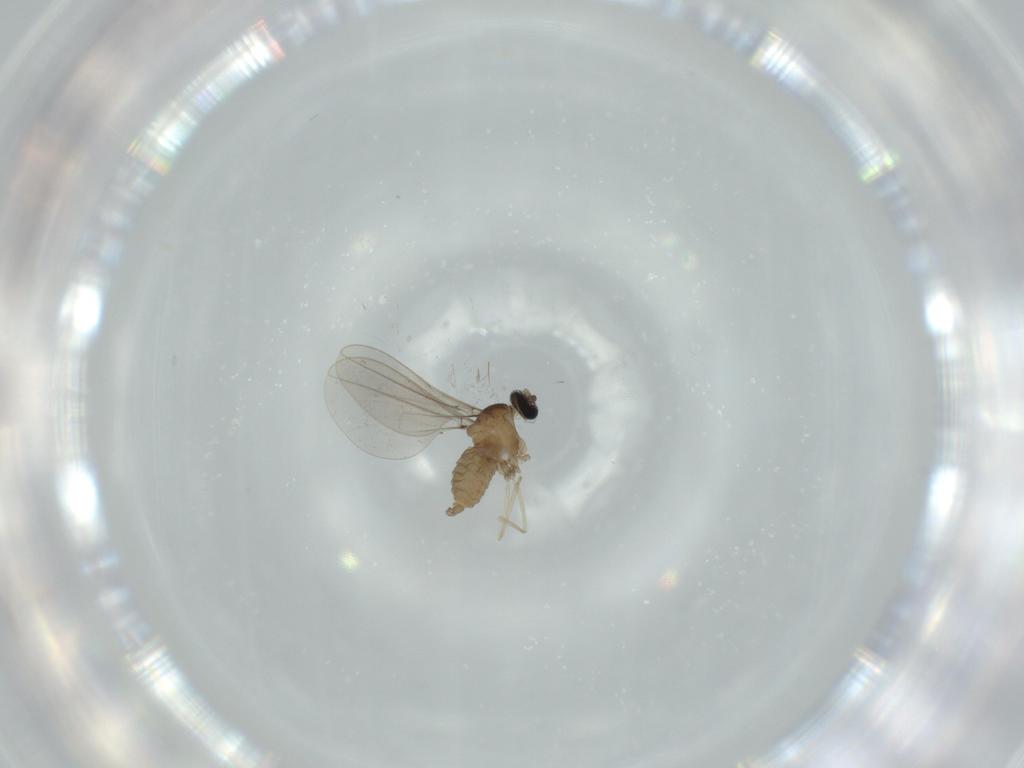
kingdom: Animalia
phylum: Arthropoda
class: Insecta
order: Diptera
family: Cecidomyiidae
